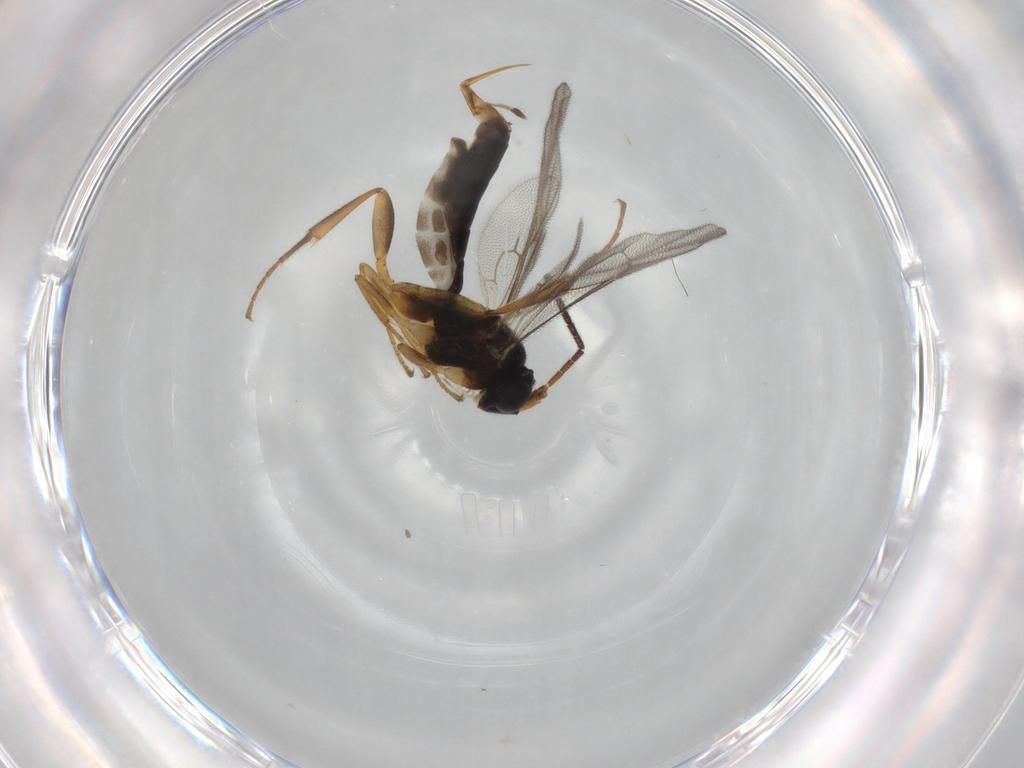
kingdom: Animalia
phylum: Arthropoda
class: Insecta
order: Hymenoptera
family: Ichneumonidae
